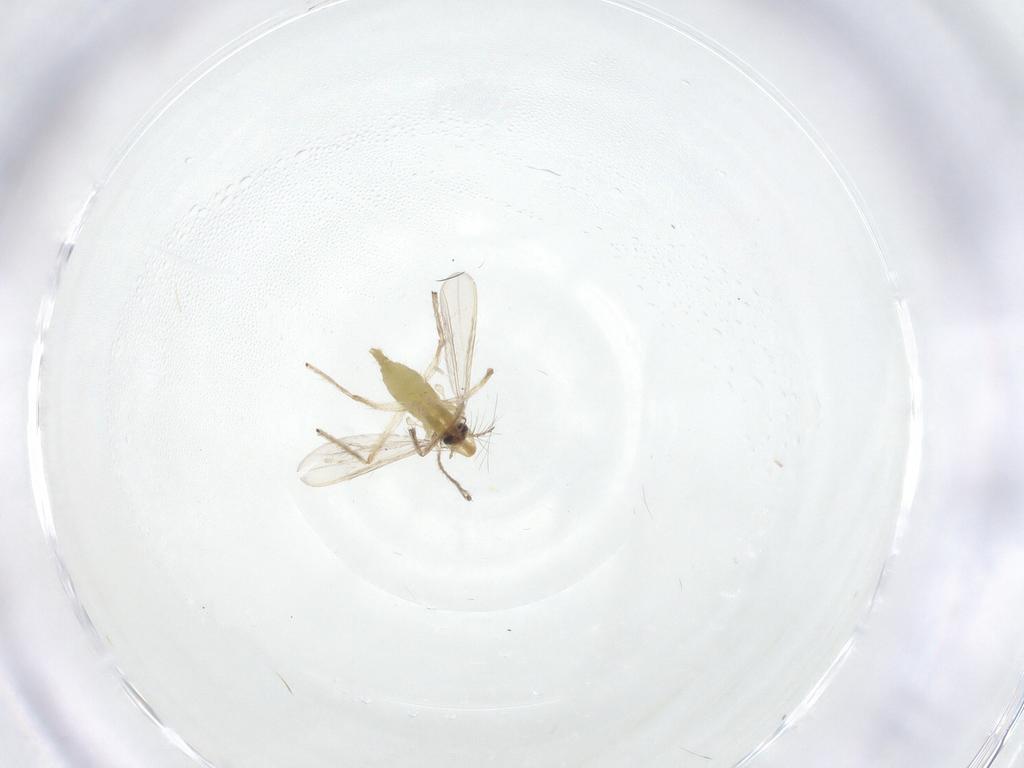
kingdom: Animalia
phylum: Arthropoda
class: Insecta
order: Diptera
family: Chironomidae
